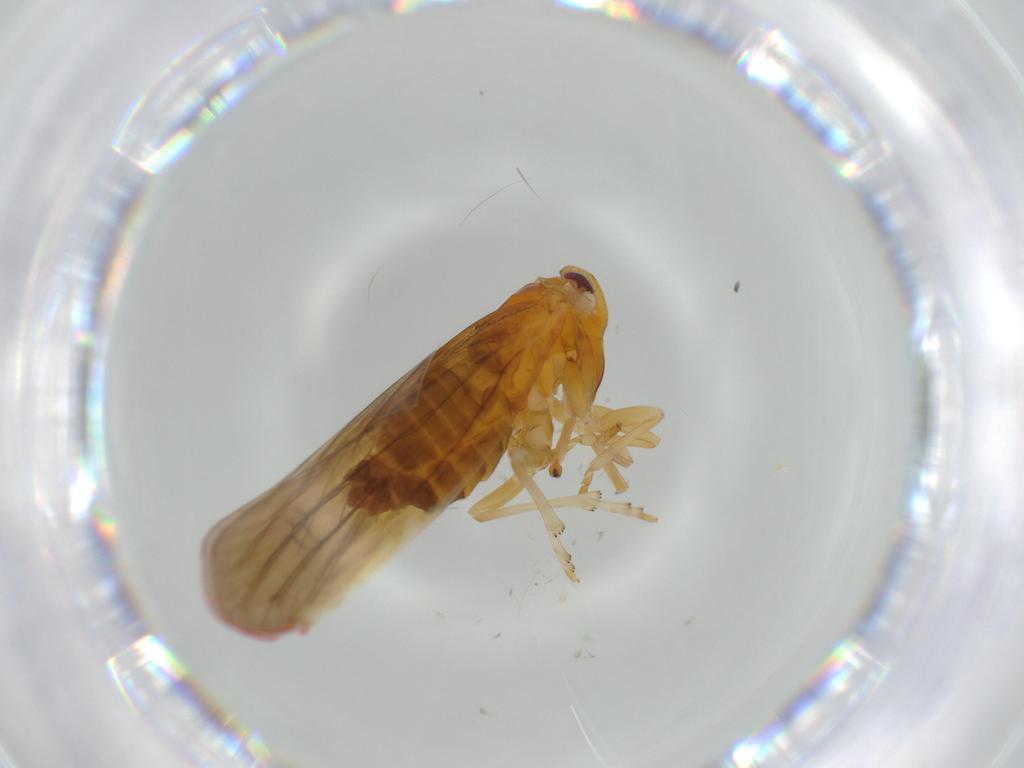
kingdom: Animalia
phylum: Arthropoda
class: Insecta
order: Hemiptera
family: Derbidae
